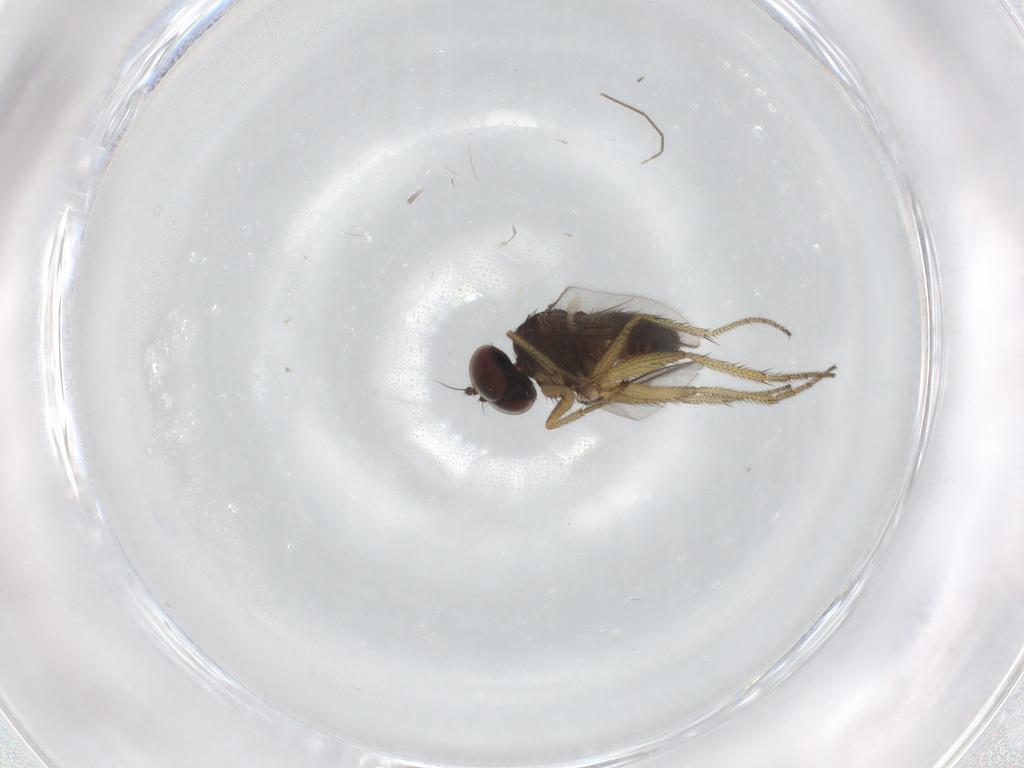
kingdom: Animalia
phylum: Arthropoda
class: Insecta
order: Diptera
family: Chironomidae
